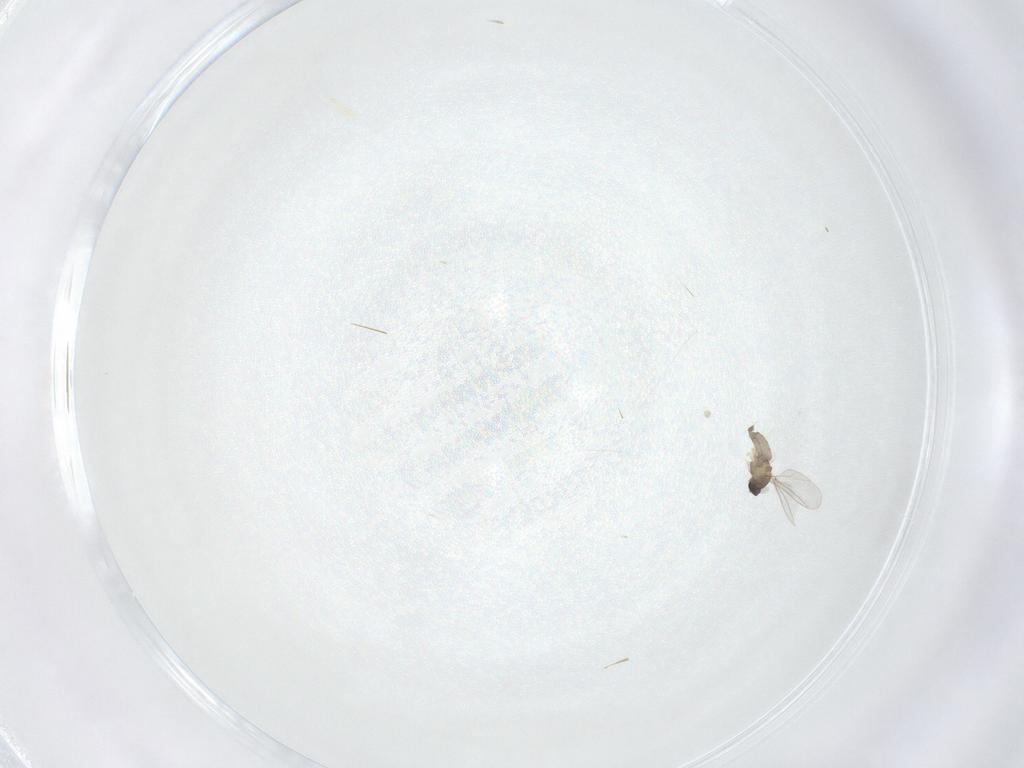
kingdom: Animalia
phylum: Arthropoda
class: Insecta
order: Diptera
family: Cecidomyiidae
